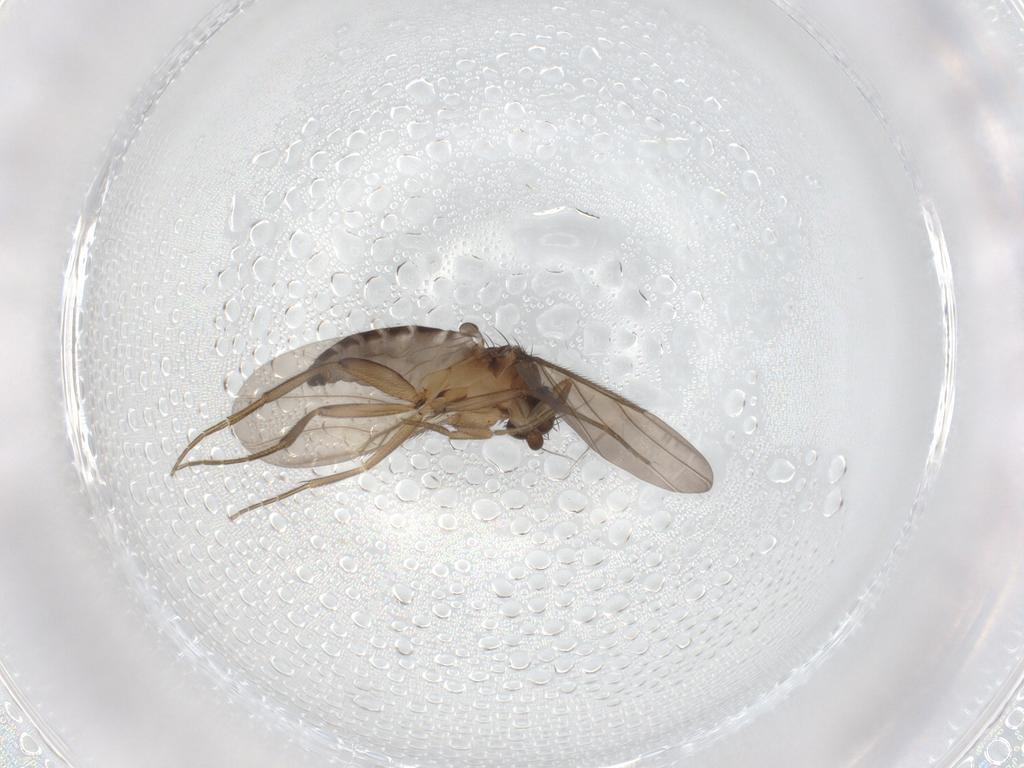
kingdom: Animalia
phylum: Arthropoda
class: Insecta
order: Diptera
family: Phoridae
